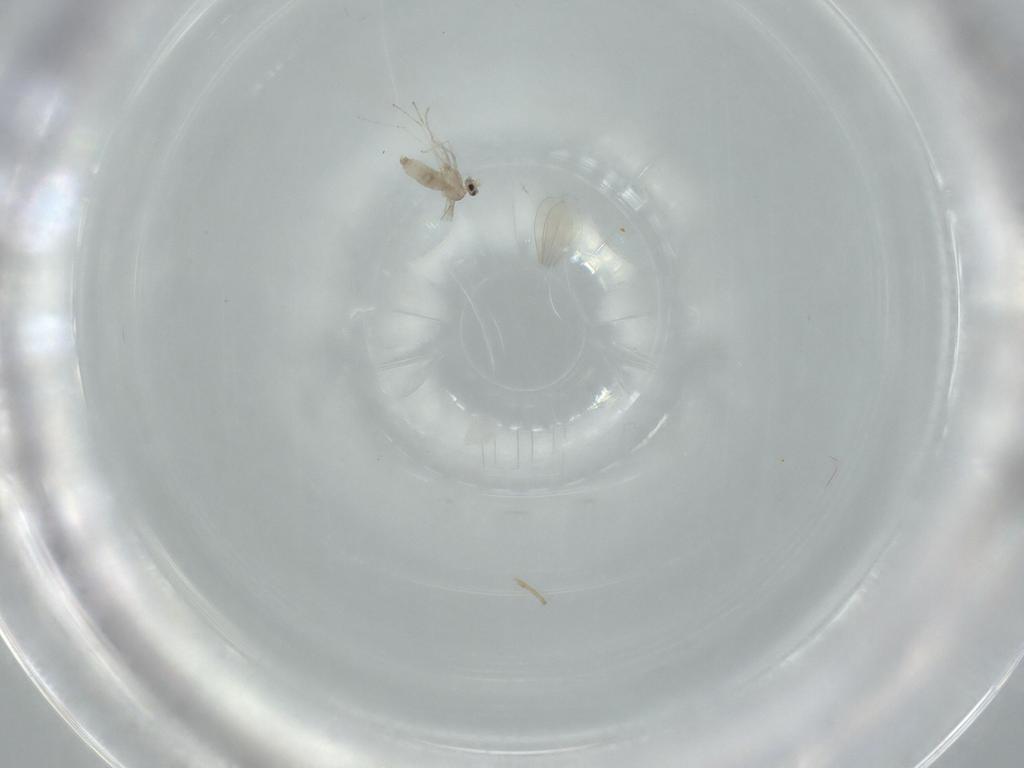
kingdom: Animalia
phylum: Arthropoda
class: Insecta
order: Diptera
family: Cecidomyiidae
